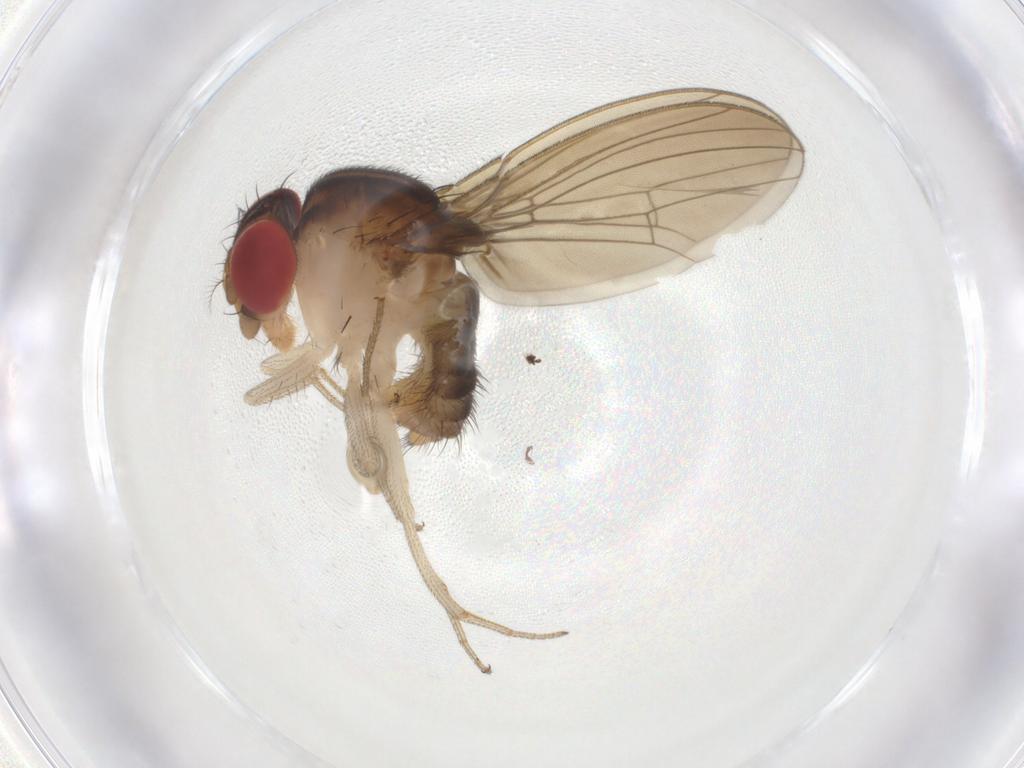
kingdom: Animalia
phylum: Arthropoda
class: Insecta
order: Diptera
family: Drosophilidae
